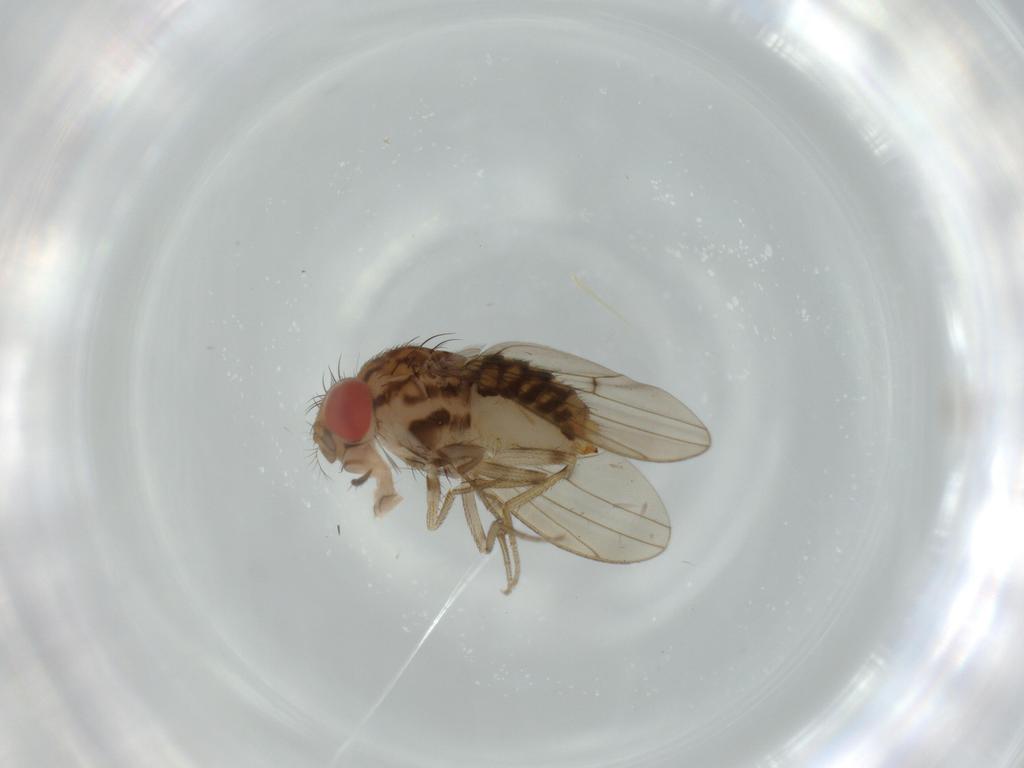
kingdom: Animalia
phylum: Arthropoda
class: Insecta
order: Diptera
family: Drosophilidae
